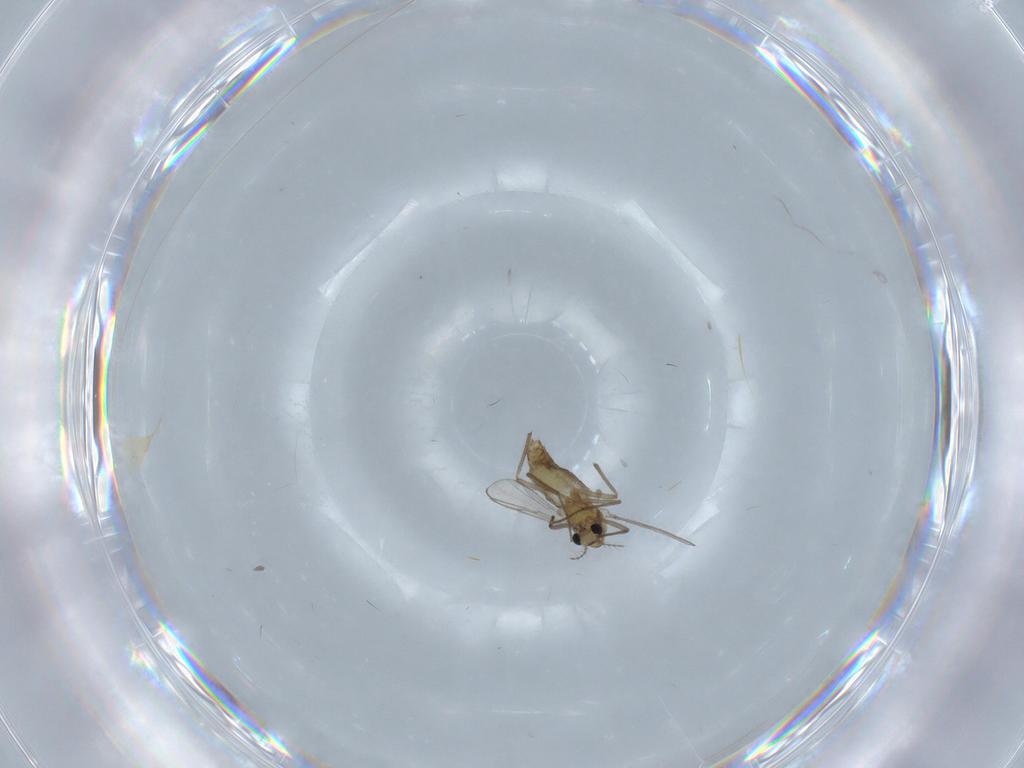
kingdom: Animalia
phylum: Arthropoda
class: Insecta
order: Diptera
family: Chironomidae
